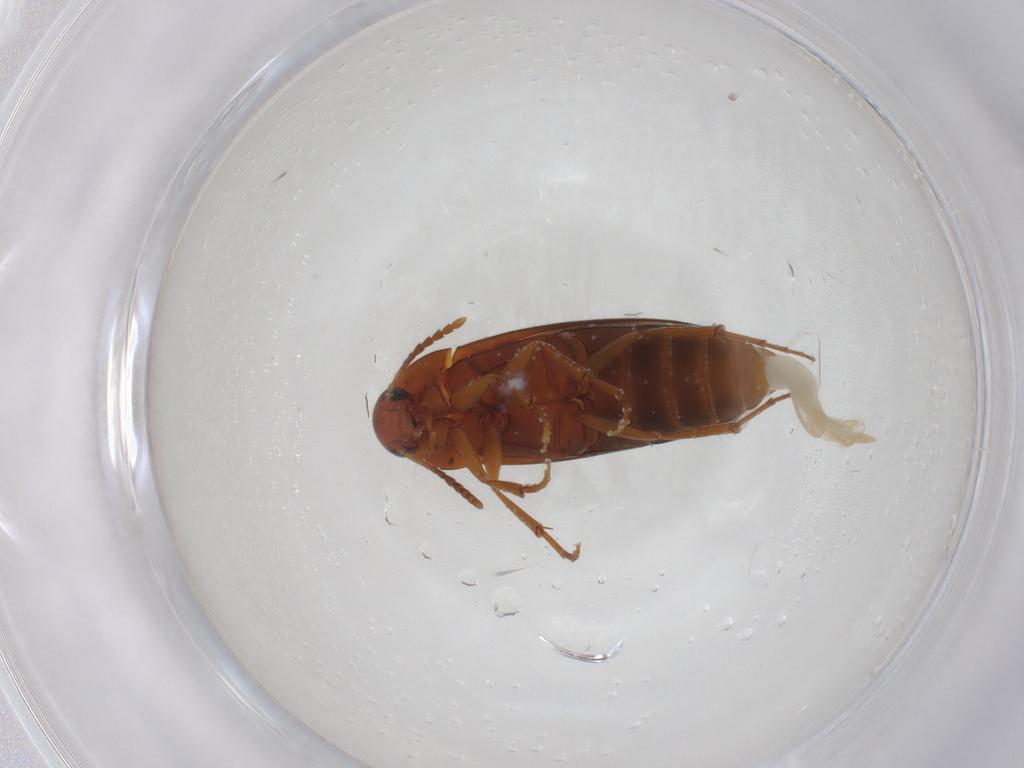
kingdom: Animalia
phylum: Arthropoda
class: Insecta
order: Coleoptera
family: Scraptiidae
